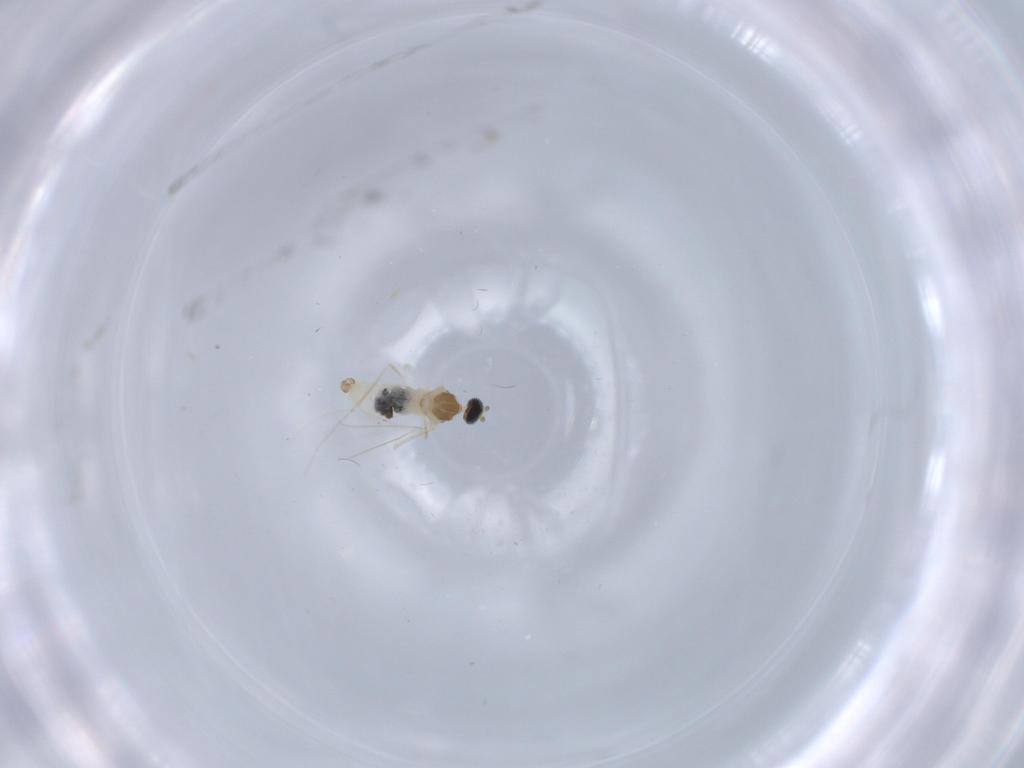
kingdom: Animalia
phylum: Arthropoda
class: Insecta
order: Diptera
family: Cecidomyiidae
